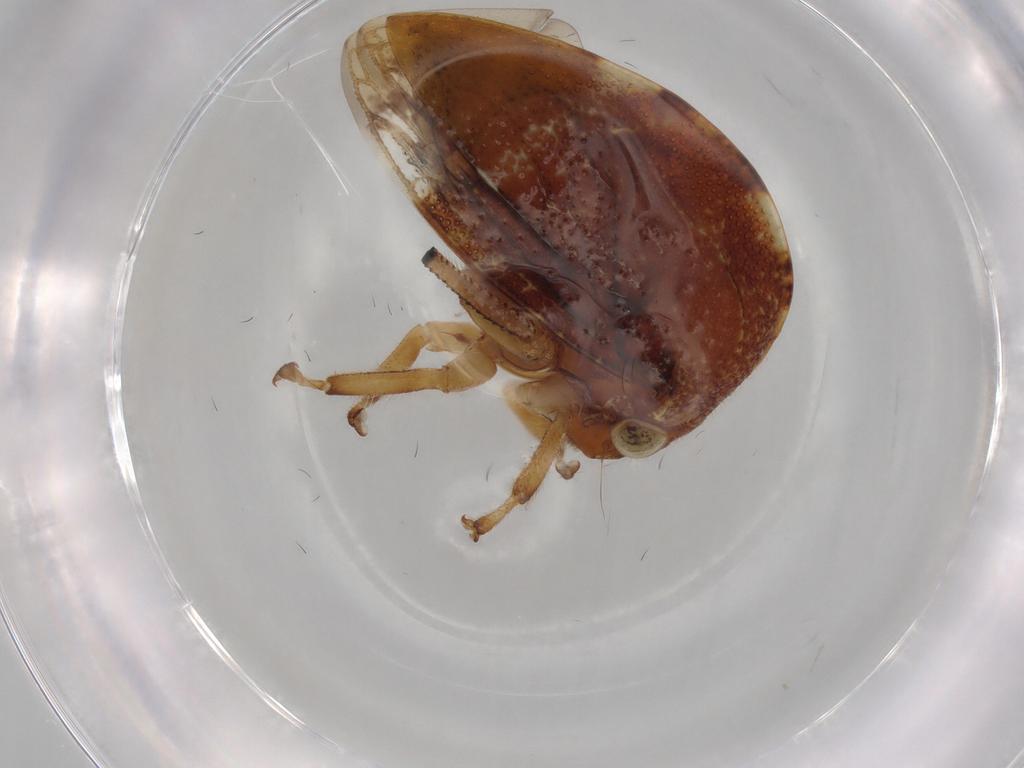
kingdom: Animalia
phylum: Arthropoda
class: Insecta
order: Hemiptera
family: Membracidae
